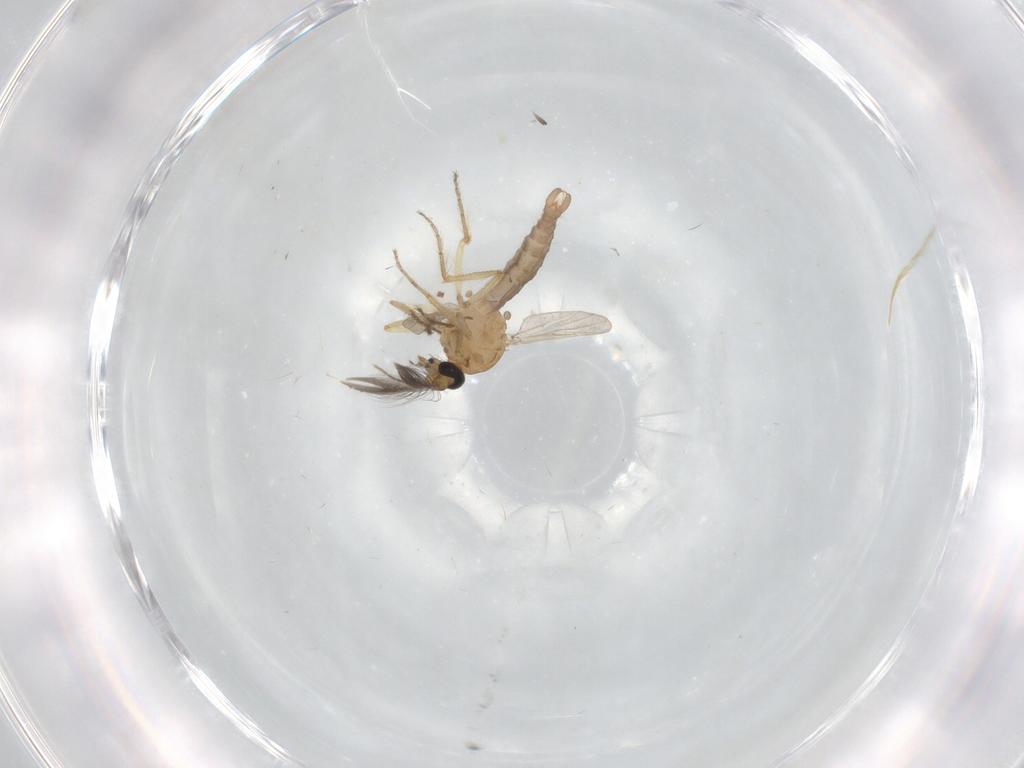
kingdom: Animalia
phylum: Arthropoda
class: Insecta
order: Diptera
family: Ceratopogonidae
